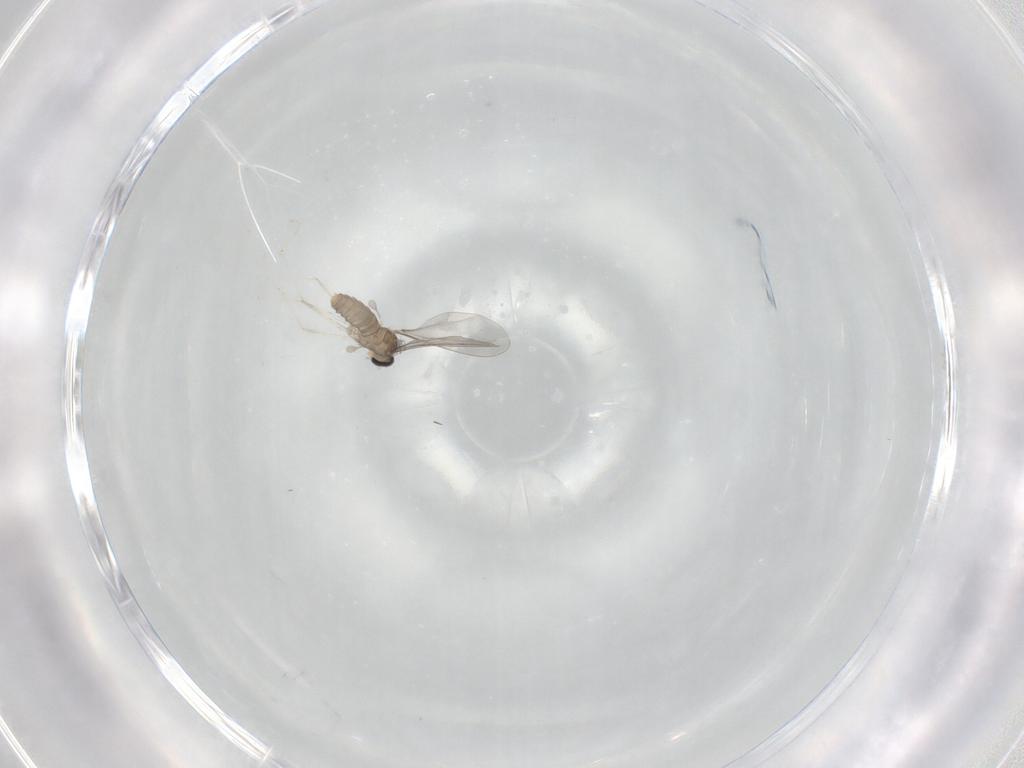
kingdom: Animalia
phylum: Arthropoda
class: Insecta
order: Diptera
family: Cecidomyiidae
